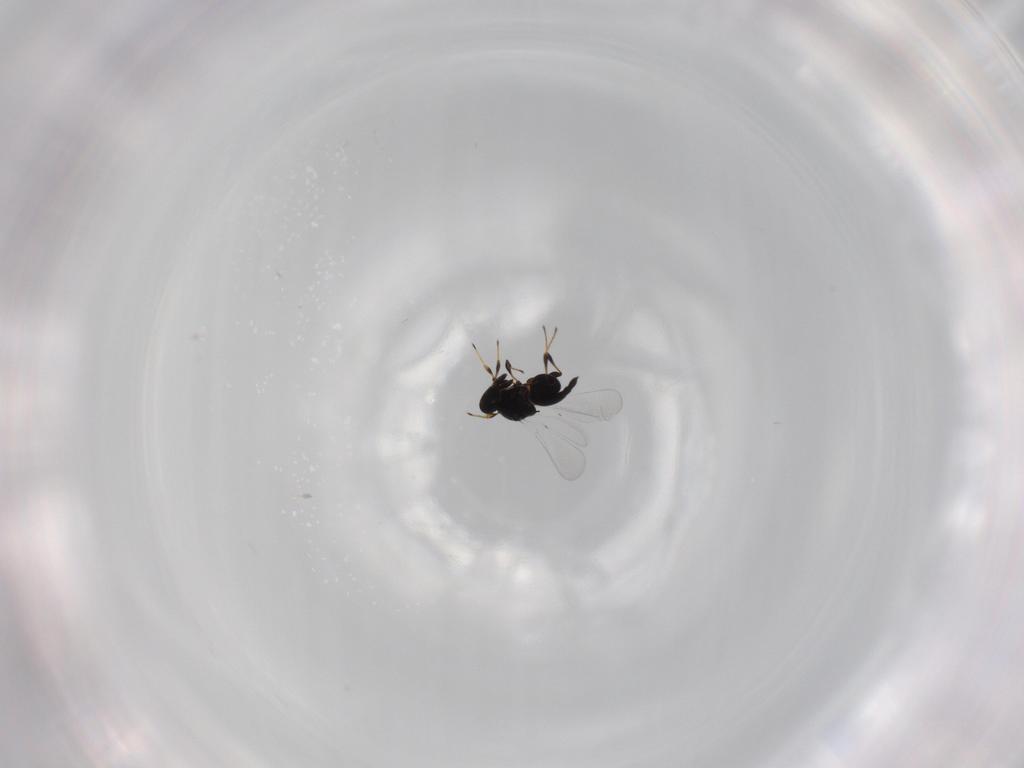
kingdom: Animalia
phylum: Arthropoda
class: Insecta
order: Hymenoptera
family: Platygastridae
